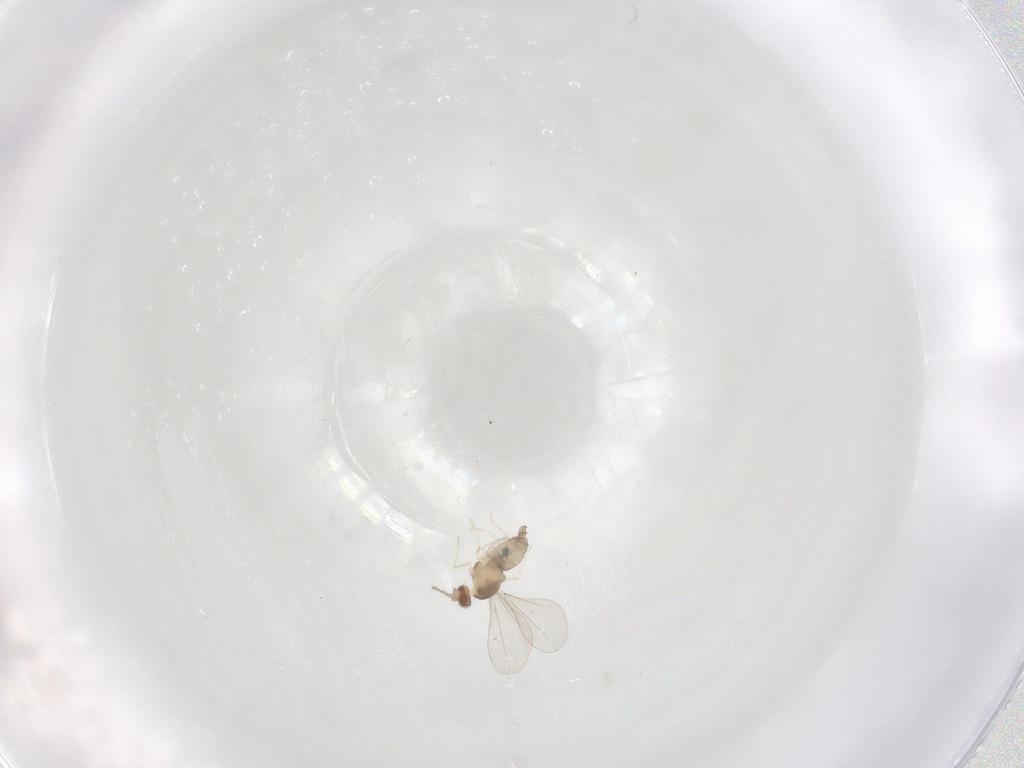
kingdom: Animalia
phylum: Arthropoda
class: Insecta
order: Diptera
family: Cecidomyiidae
